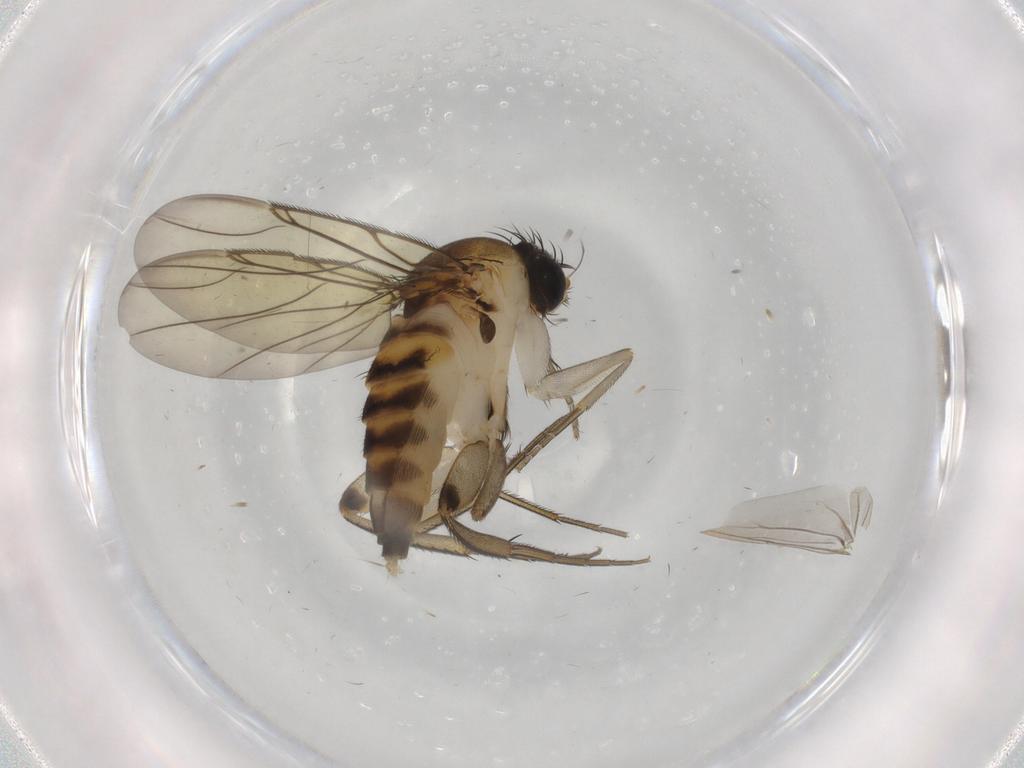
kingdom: Animalia
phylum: Arthropoda
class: Insecta
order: Diptera
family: Phoridae
